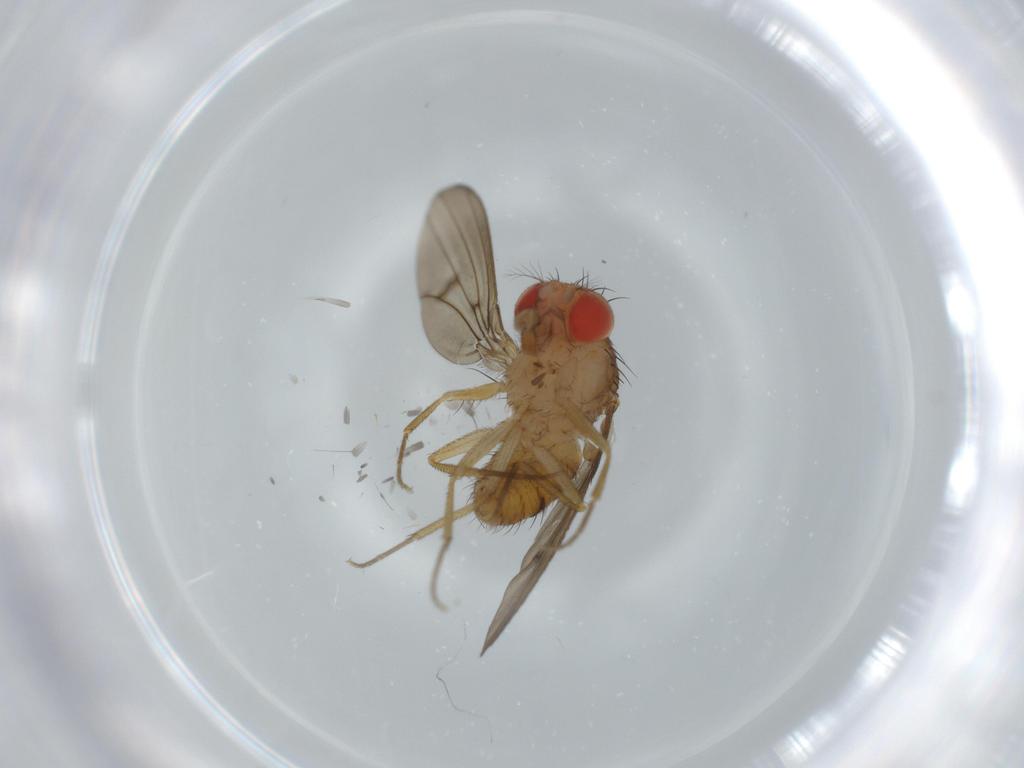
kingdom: Animalia
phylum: Arthropoda
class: Insecta
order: Diptera
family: Drosophilidae
